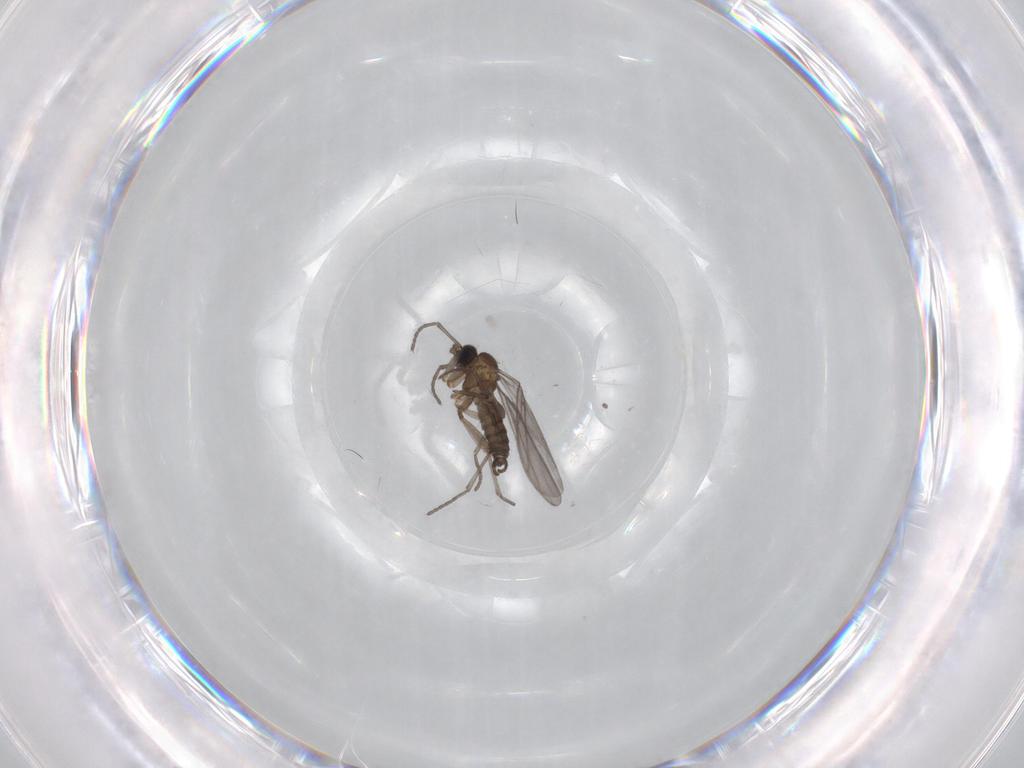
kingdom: Animalia
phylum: Arthropoda
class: Insecta
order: Diptera
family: Sciaridae
